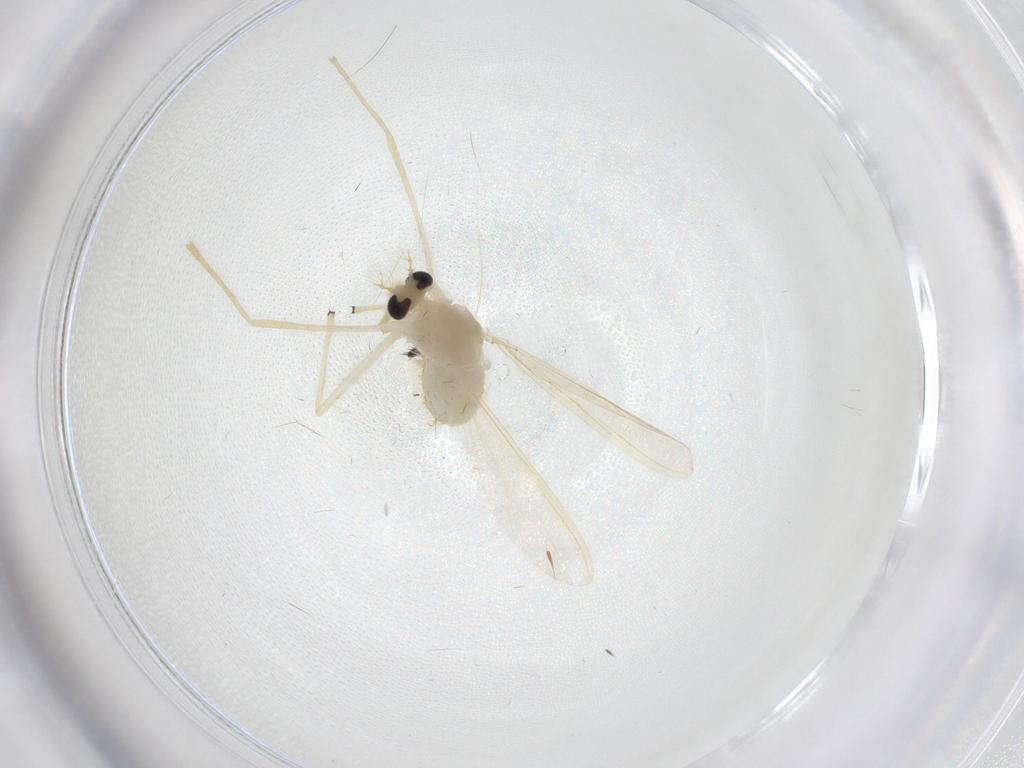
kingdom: Animalia
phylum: Arthropoda
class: Insecta
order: Diptera
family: Chironomidae
